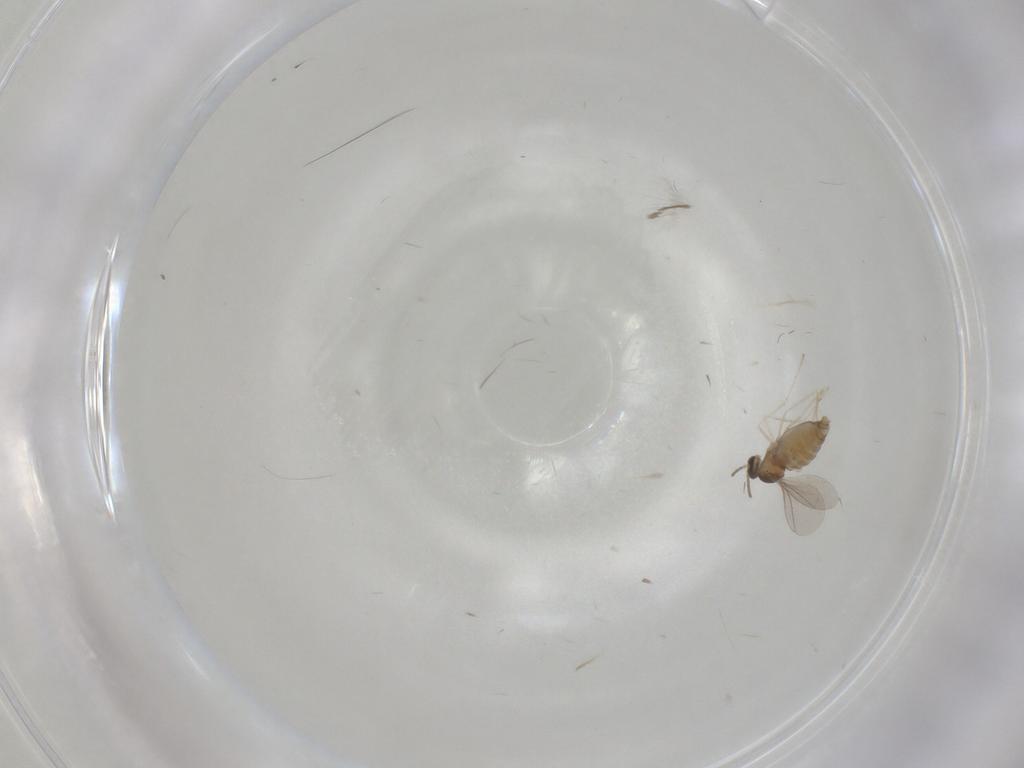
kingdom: Animalia
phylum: Arthropoda
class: Insecta
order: Diptera
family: Chironomidae
